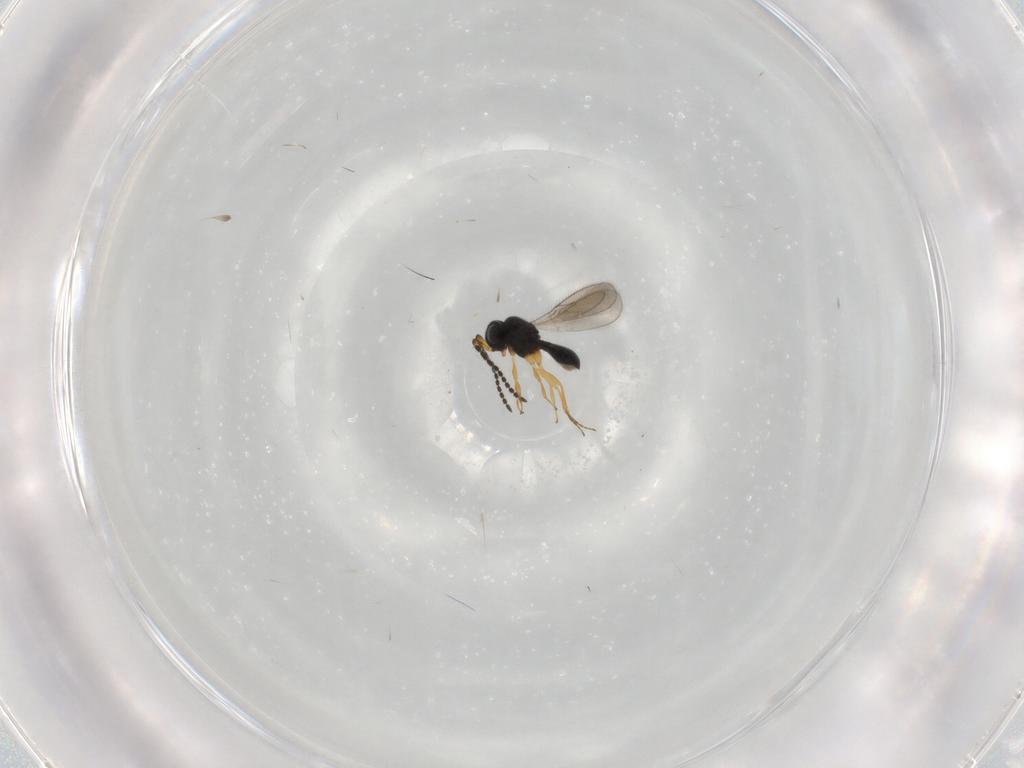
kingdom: Animalia
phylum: Arthropoda
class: Insecta
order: Hymenoptera
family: Scelionidae
